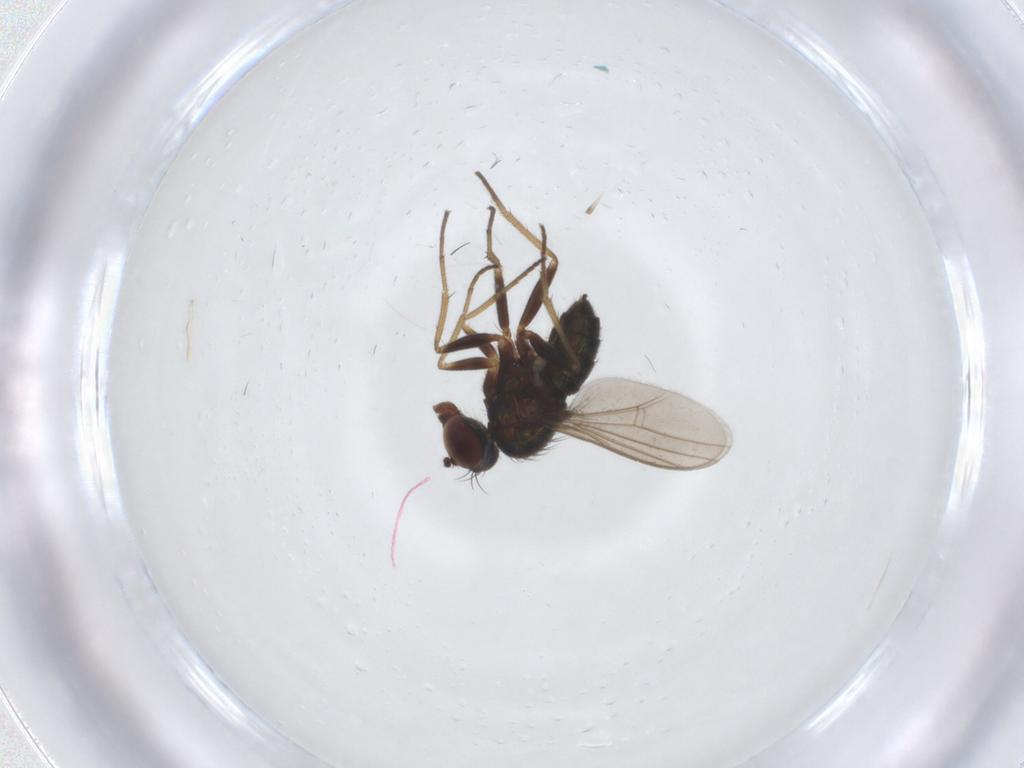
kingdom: Animalia
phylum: Arthropoda
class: Insecta
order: Diptera
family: Dolichopodidae
